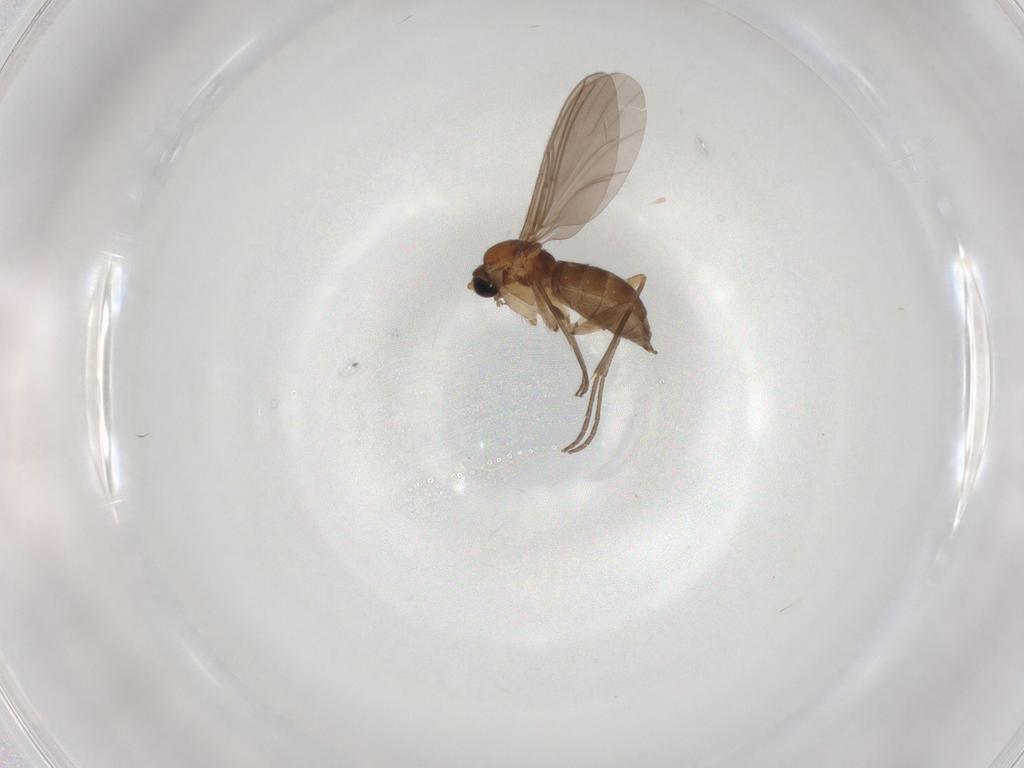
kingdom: Animalia
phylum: Arthropoda
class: Insecta
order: Diptera
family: Sciaridae
